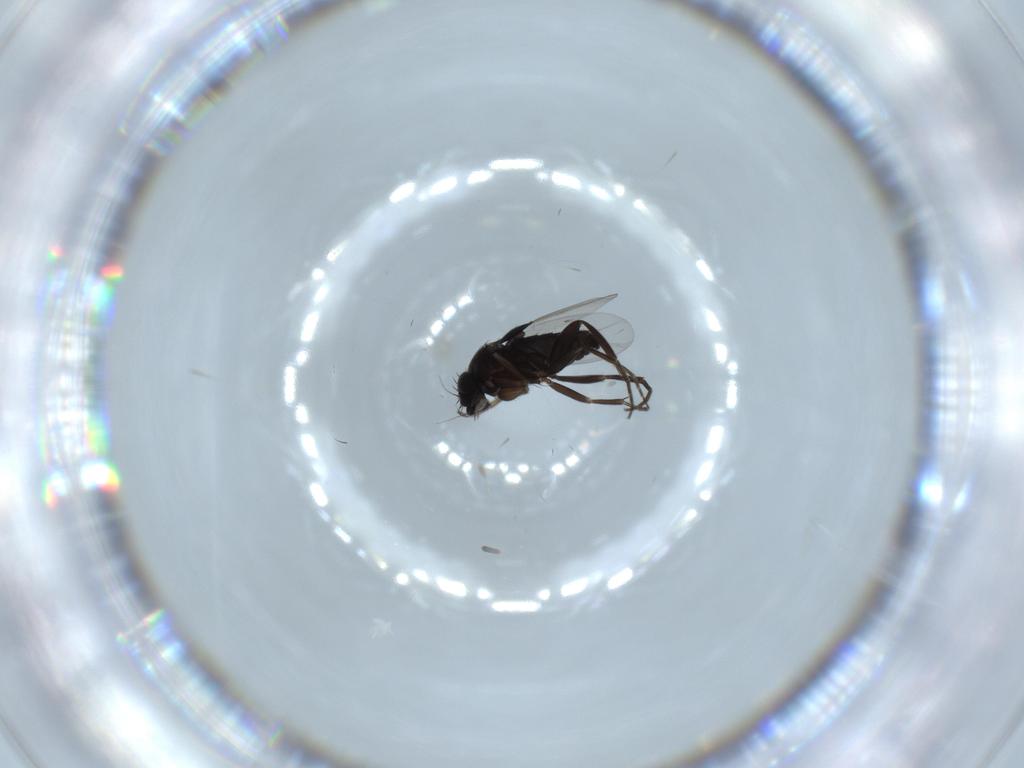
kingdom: Animalia
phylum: Arthropoda
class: Insecta
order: Diptera
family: Phoridae
